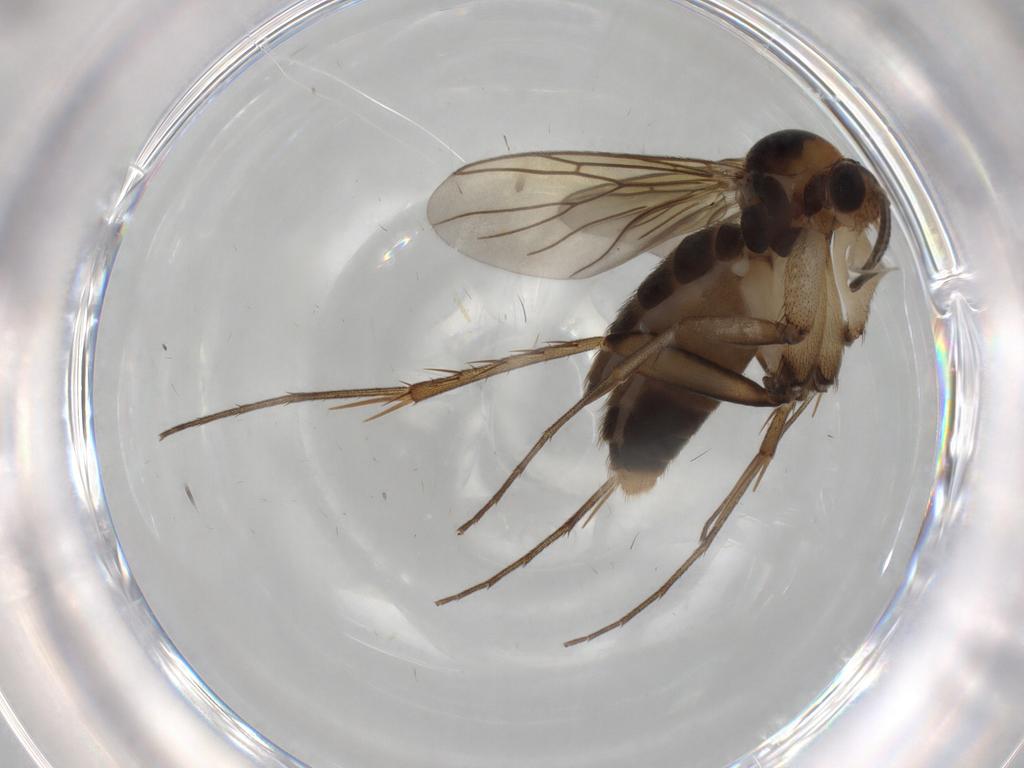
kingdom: Animalia
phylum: Arthropoda
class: Insecta
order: Diptera
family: Mycetophilidae
